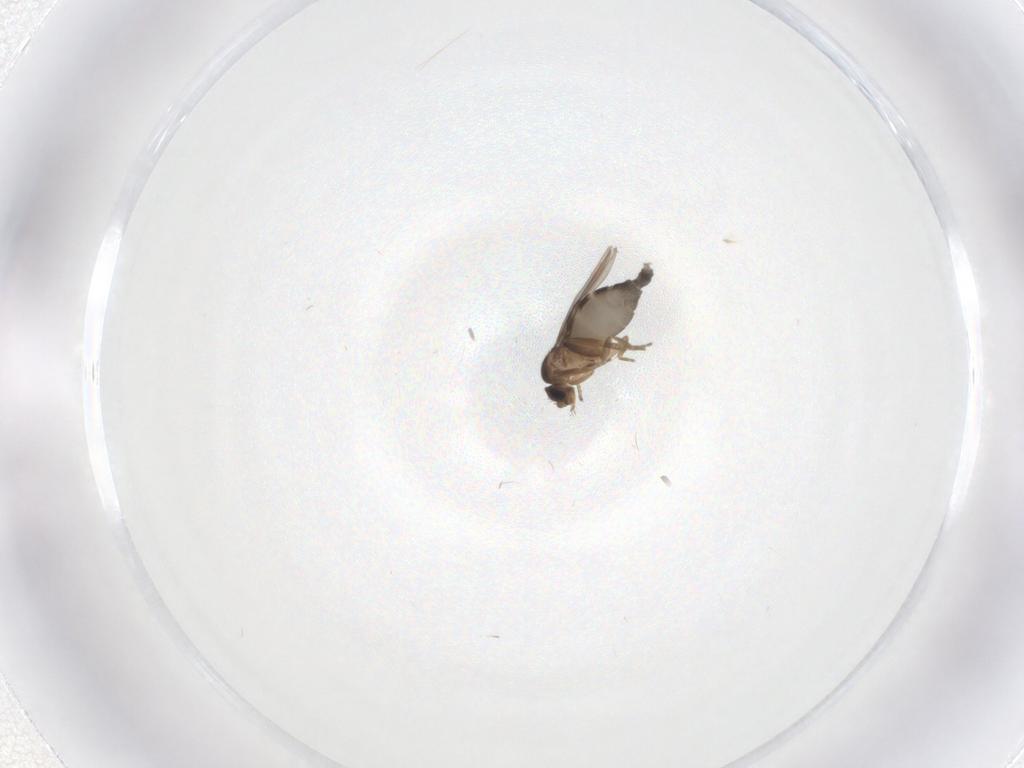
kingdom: Animalia
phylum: Arthropoda
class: Insecta
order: Diptera
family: Phoridae
